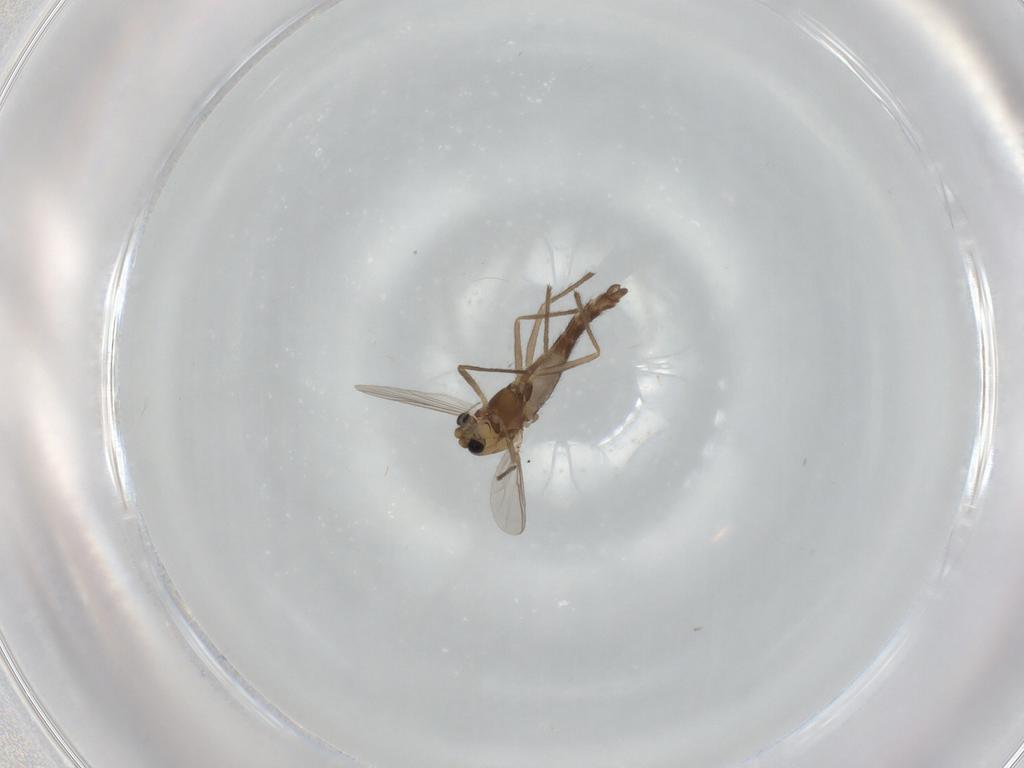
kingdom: Animalia
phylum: Arthropoda
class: Insecta
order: Diptera
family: Chironomidae
